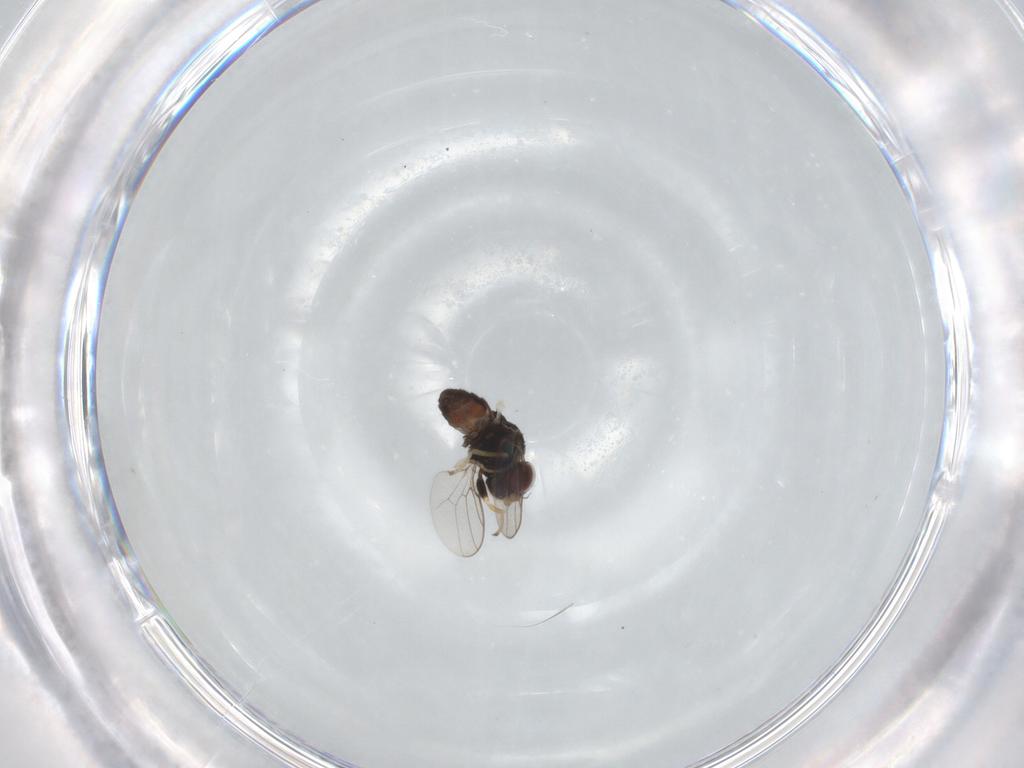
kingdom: Animalia
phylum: Arthropoda
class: Insecta
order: Diptera
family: Chloropidae
